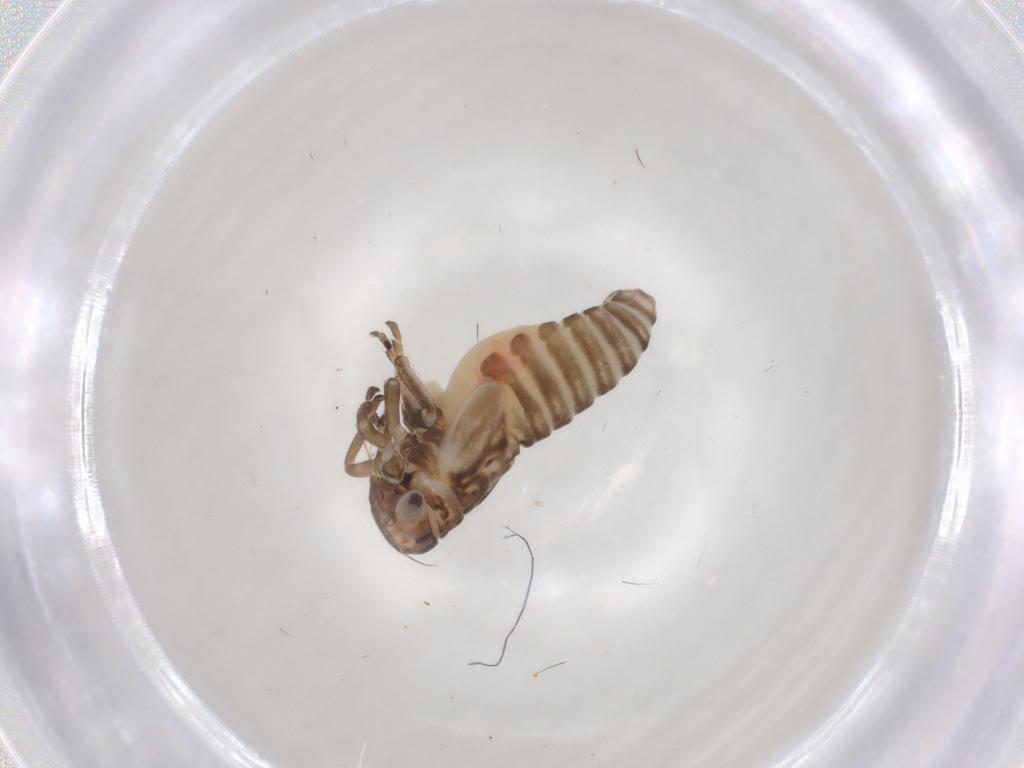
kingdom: Animalia
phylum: Arthropoda
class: Insecta
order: Hemiptera
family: Cicadellidae
